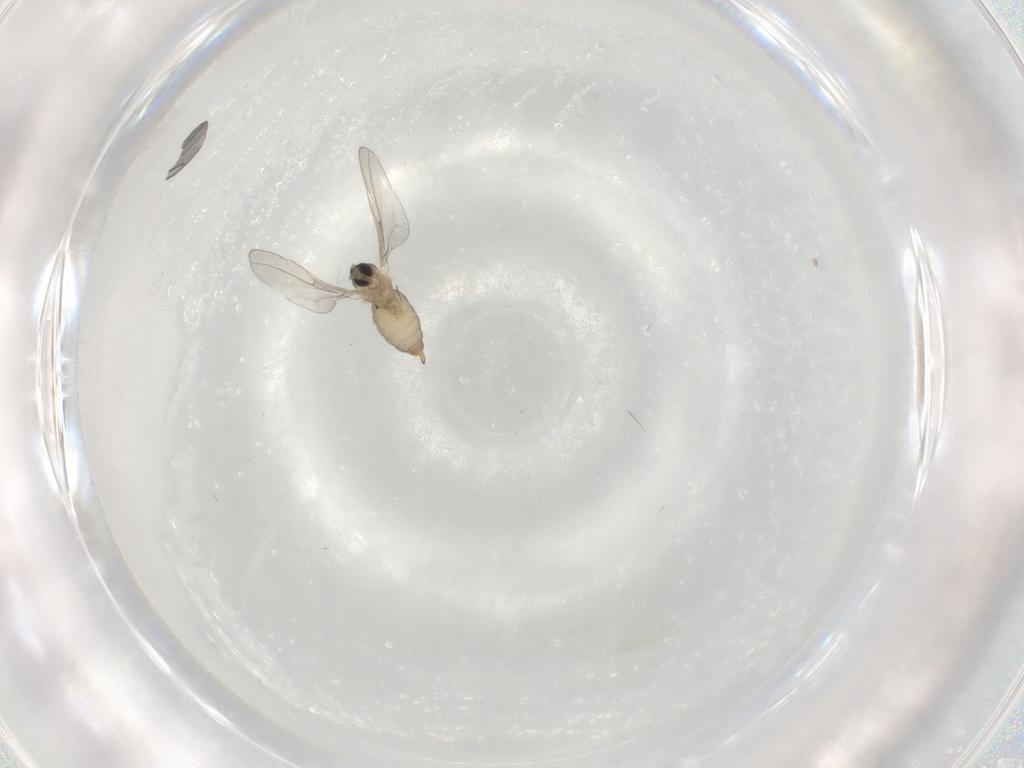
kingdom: Animalia
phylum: Arthropoda
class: Insecta
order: Diptera
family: Cecidomyiidae
